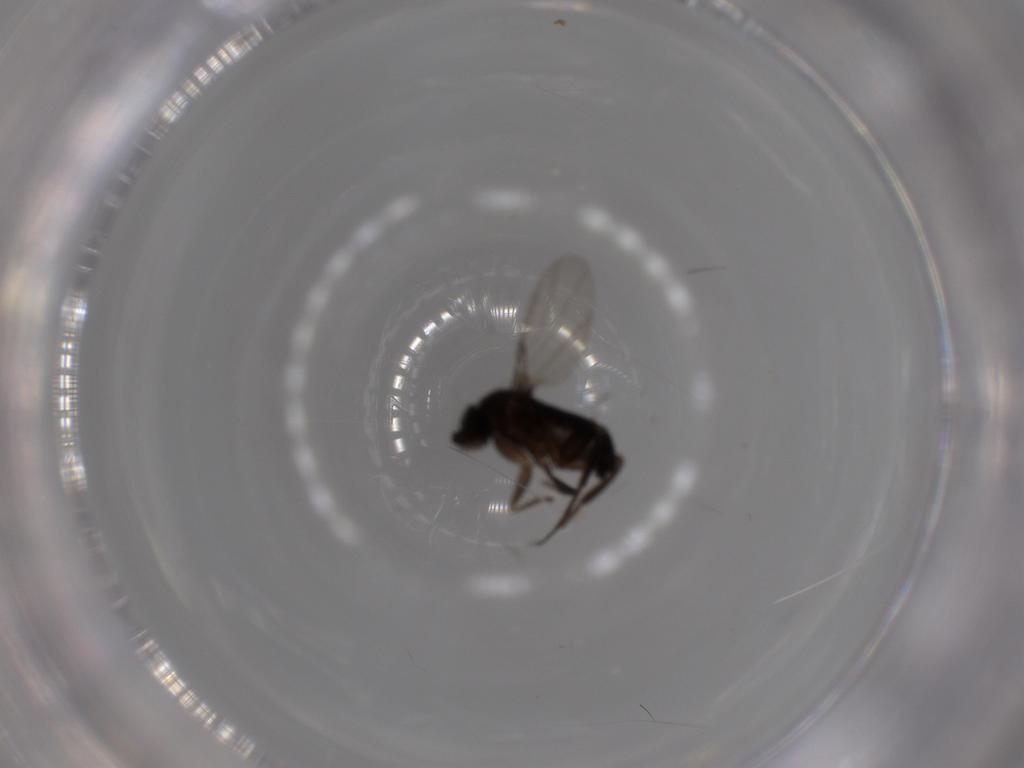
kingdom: Animalia
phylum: Arthropoda
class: Insecta
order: Diptera
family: Phoridae
